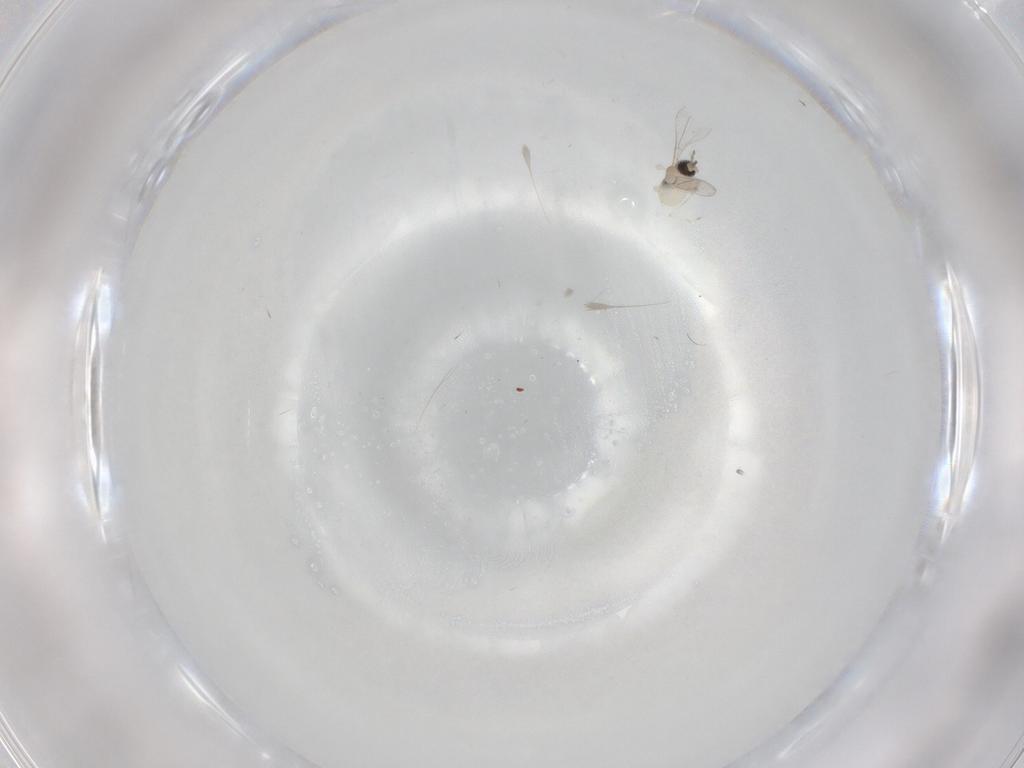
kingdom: Animalia
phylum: Arthropoda
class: Insecta
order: Diptera
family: Cecidomyiidae
